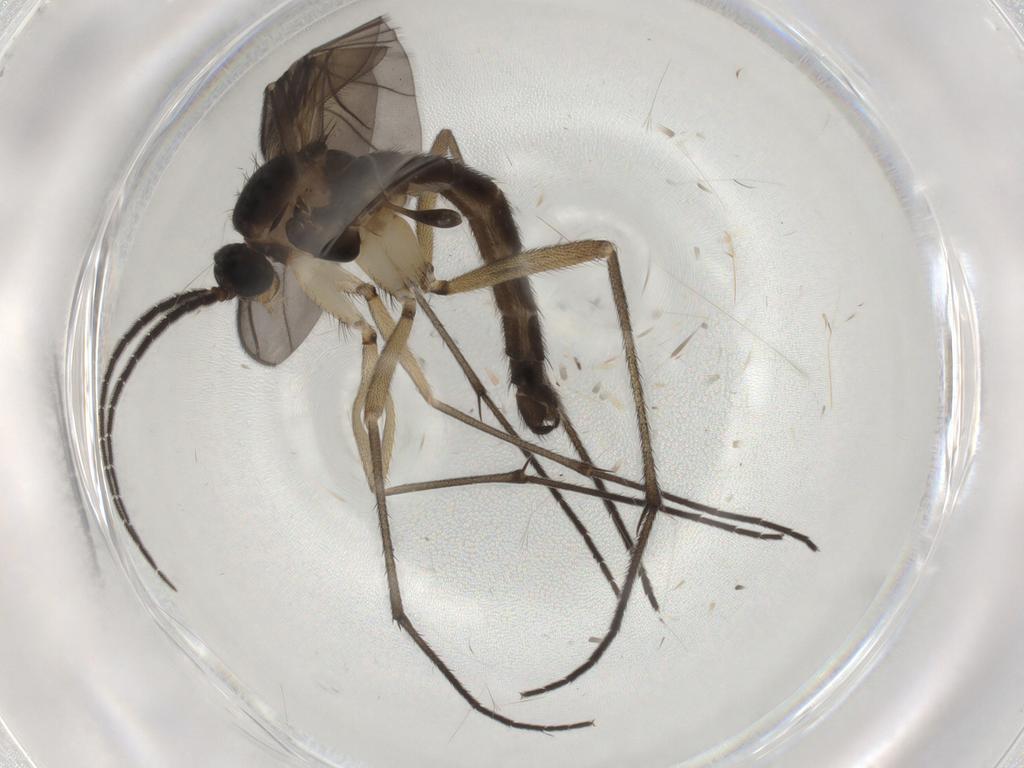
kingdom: Animalia
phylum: Arthropoda
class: Insecta
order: Diptera
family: Sciaridae
